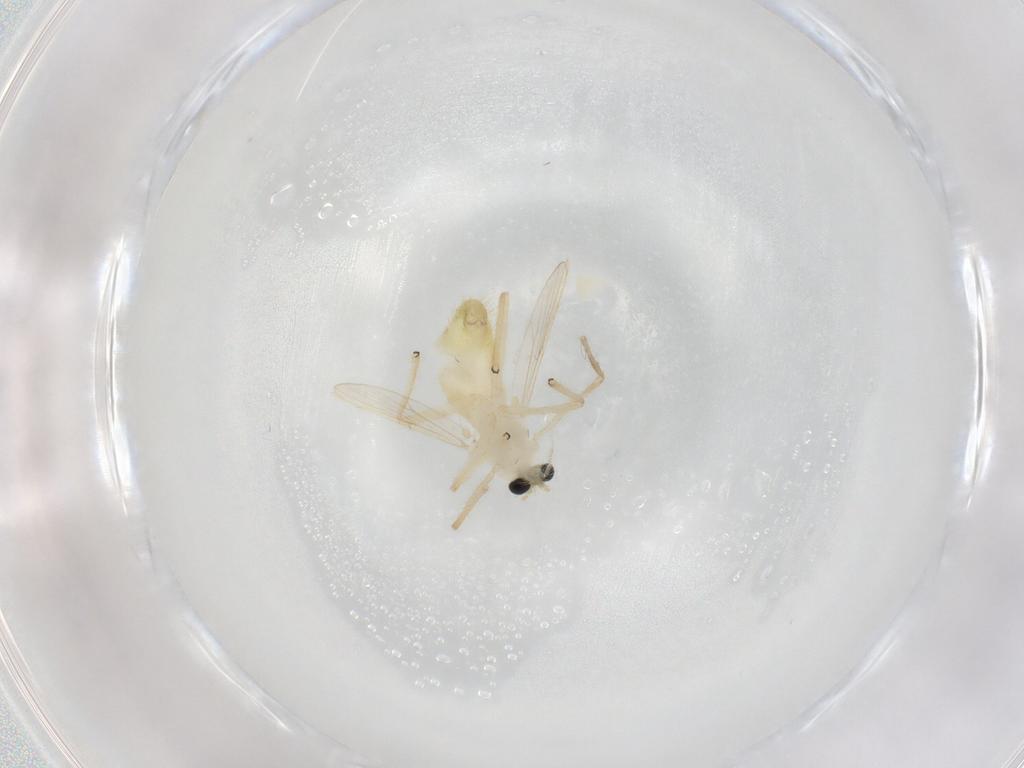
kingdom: Animalia
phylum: Arthropoda
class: Insecta
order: Diptera
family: Chironomidae
